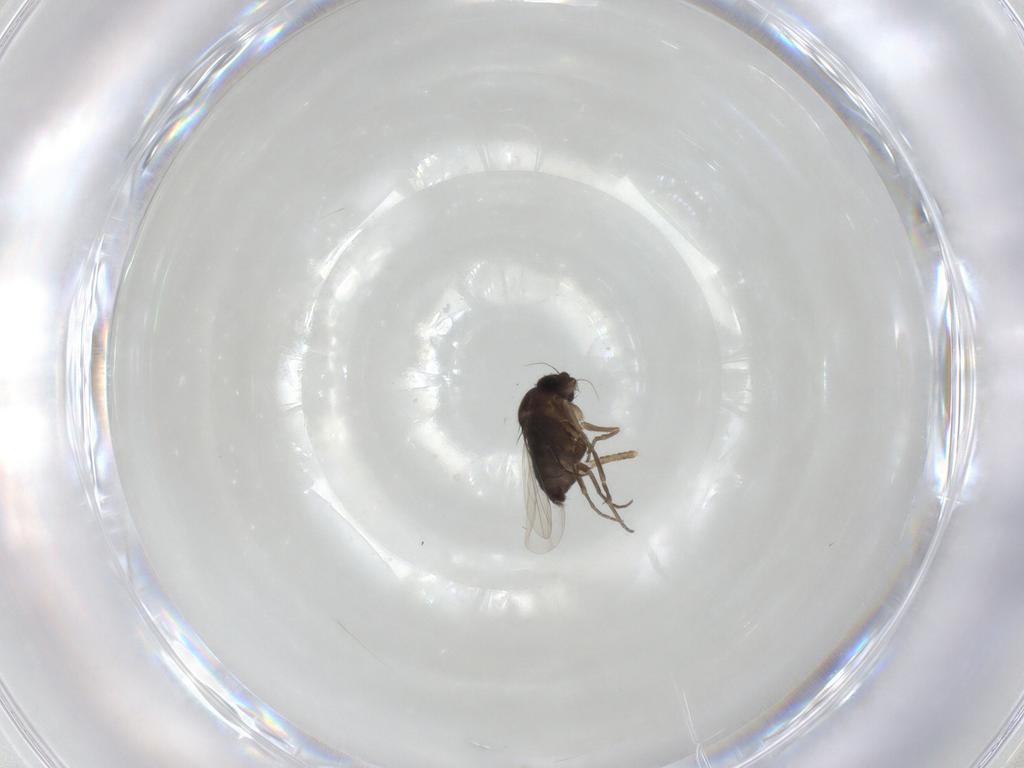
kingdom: Animalia
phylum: Arthropoda
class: Insecta
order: Diptera
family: Phoridae
